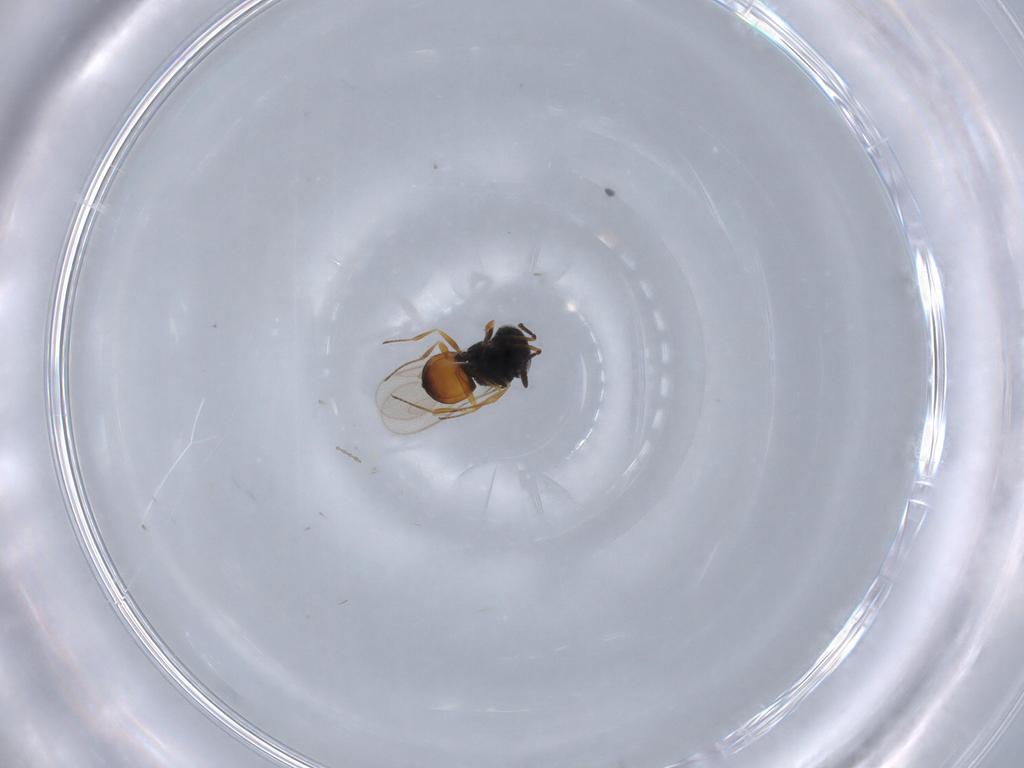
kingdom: Animalia
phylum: Arthropoda
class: Insecta
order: Hymenoptera
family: Scelionidae
